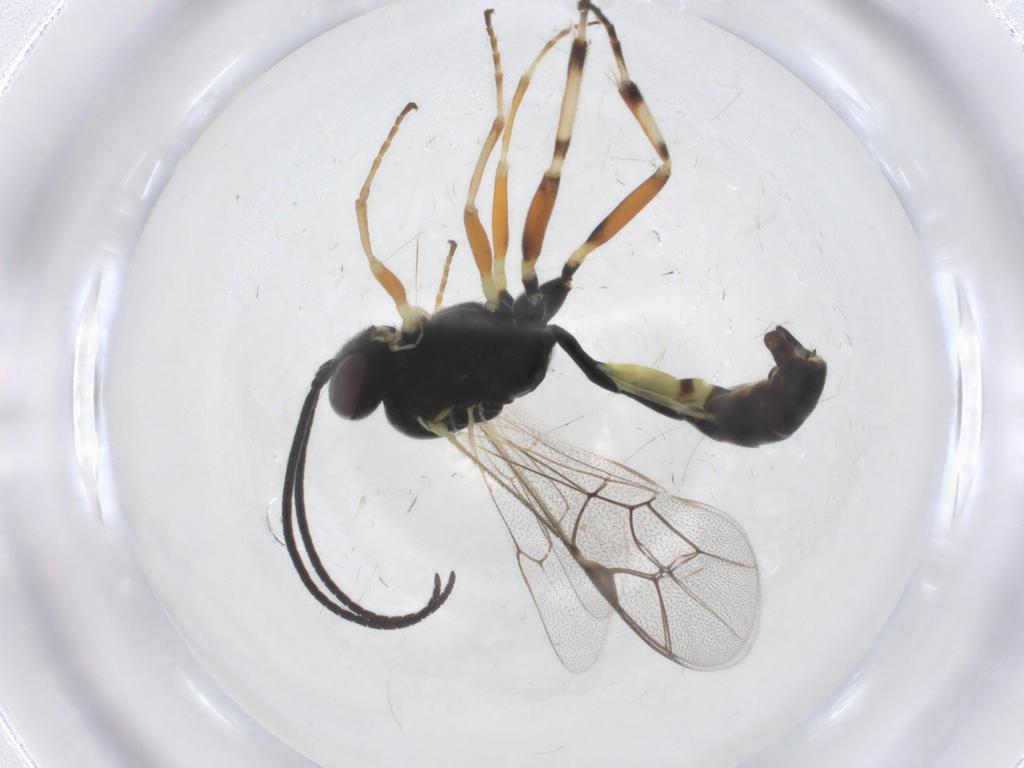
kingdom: Animalia
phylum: Arthropoda
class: Insecta
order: Hymenoptera
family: Ichneumonidae
